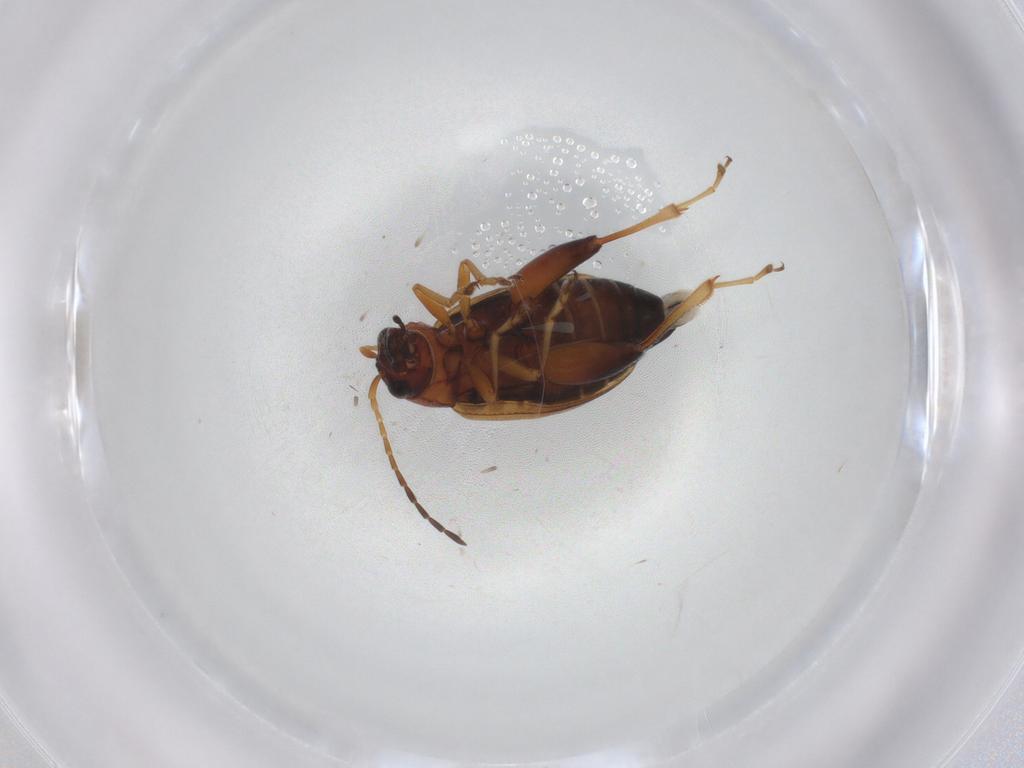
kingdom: Animalia
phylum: Arthropoda
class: Insecta
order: Coleoptera
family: Chrysomelidae
